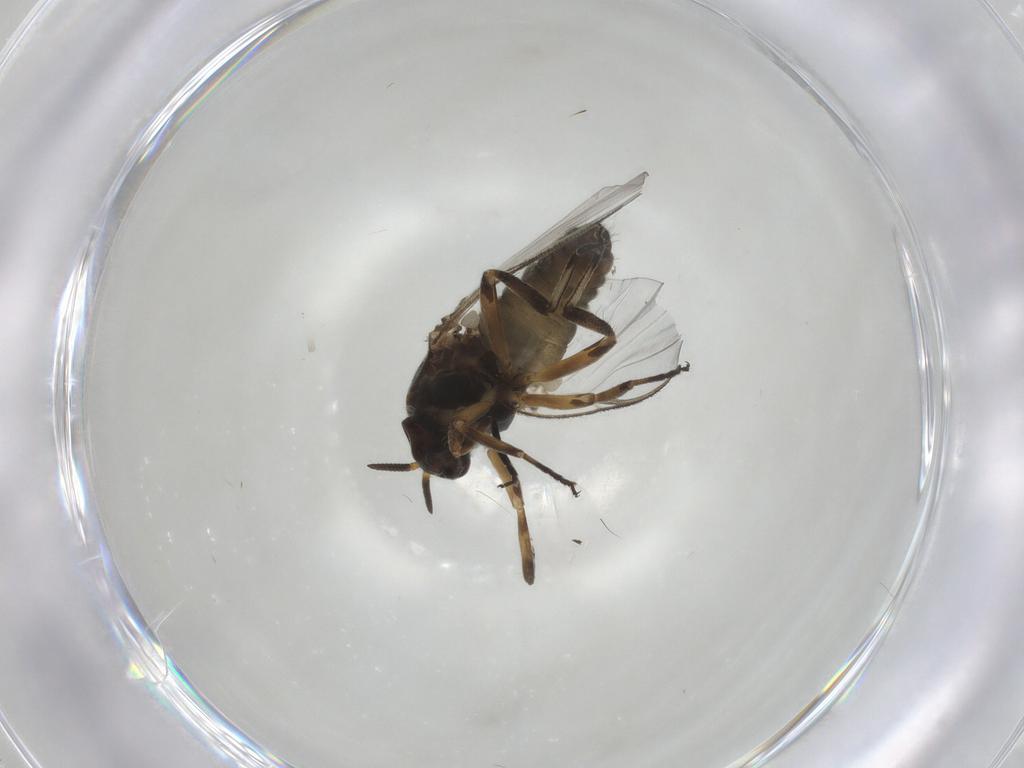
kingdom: Animalia
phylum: Arthropoda
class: Insecta
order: Diptera
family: Simuliidae
